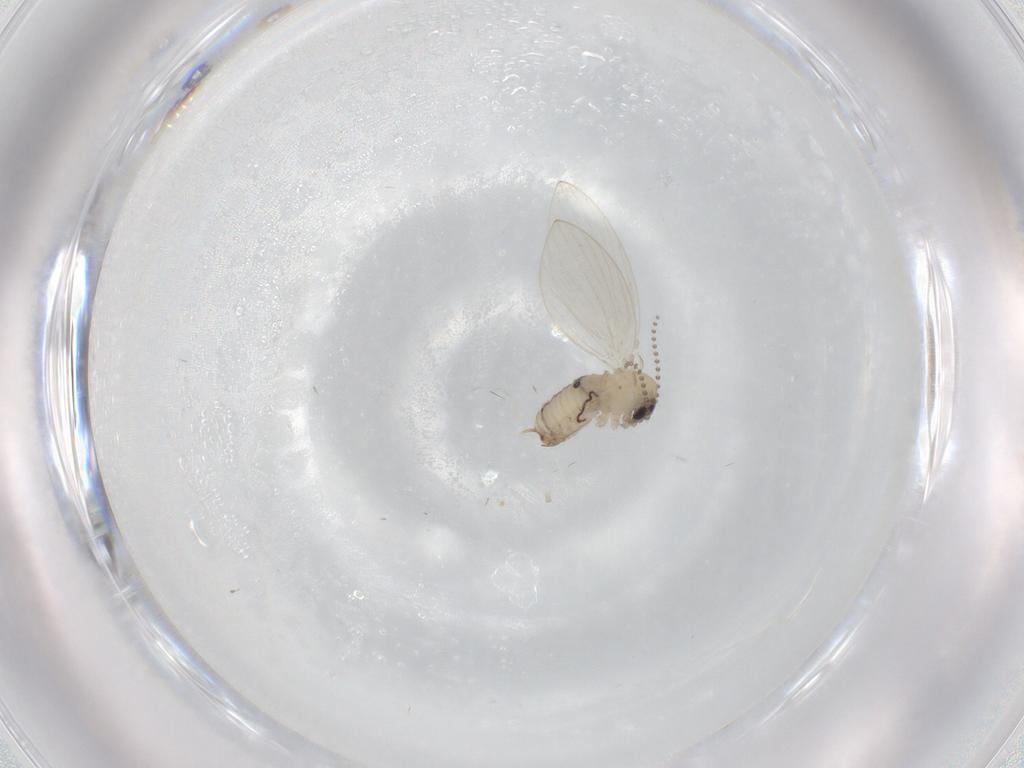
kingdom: Animalia
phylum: Arthropoda
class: Insecta
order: Diptera
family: Psychodidae
